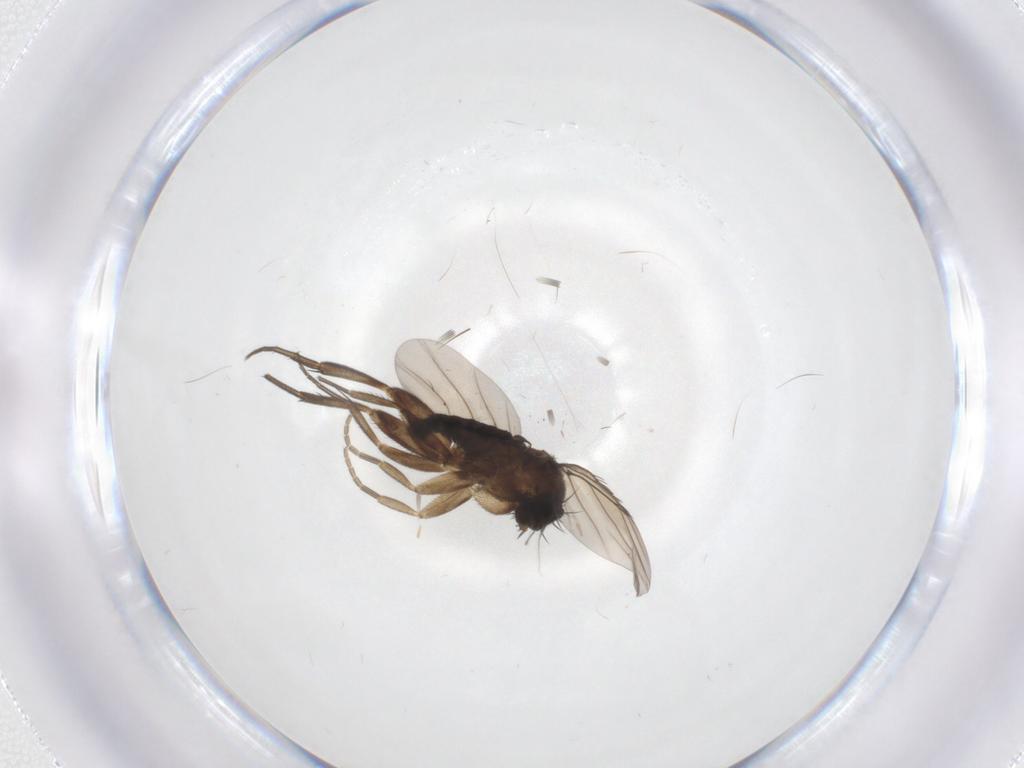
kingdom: Animalia
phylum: Arthropoda
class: Insecta
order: Diptera
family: Phoridae
